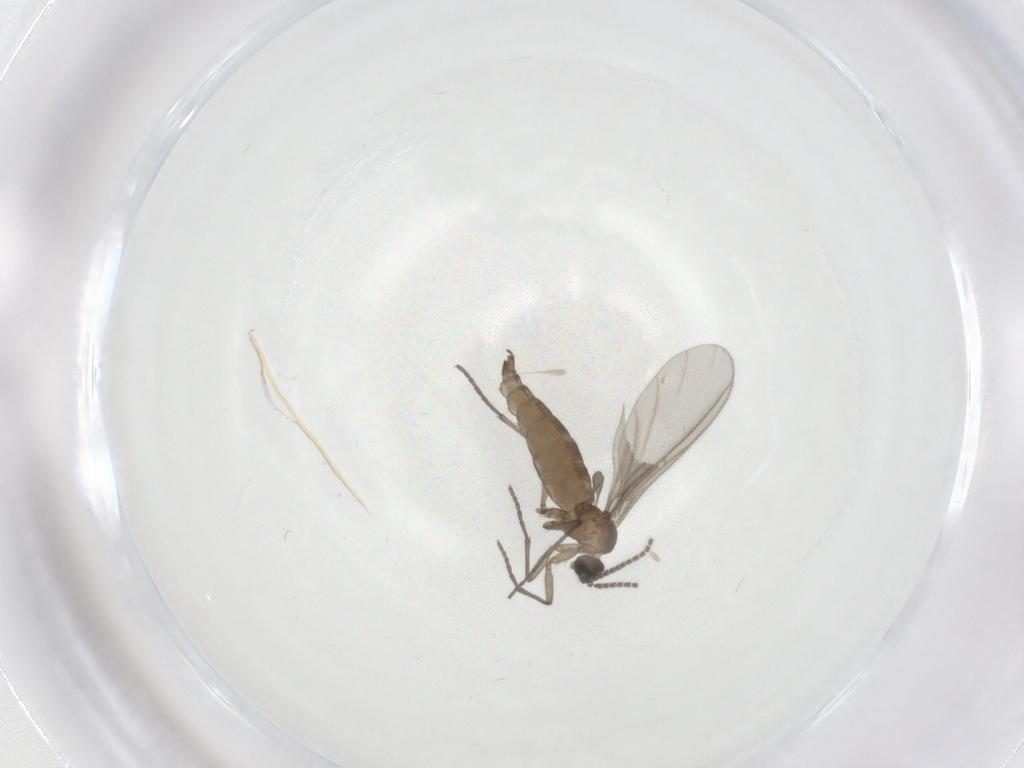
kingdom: Animalia
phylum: Arthropoda
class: Insecta
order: Diptera
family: Sciaridae
